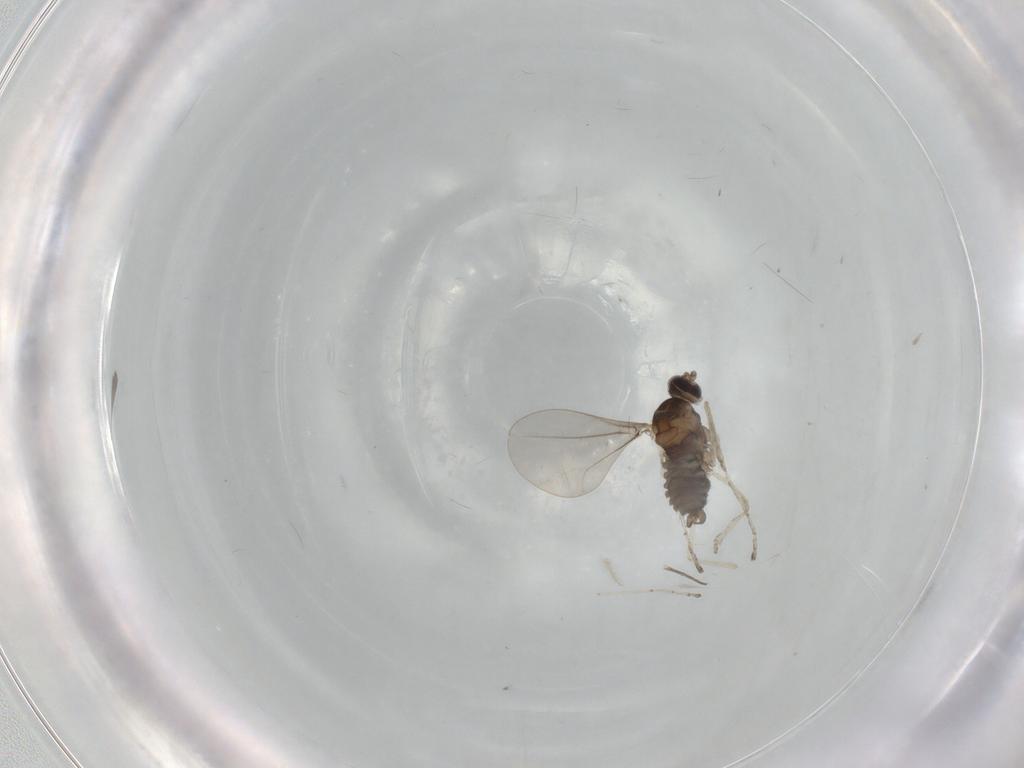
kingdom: Animalia
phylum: Arthropoda
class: Insecta
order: Diptera
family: Phoridae
